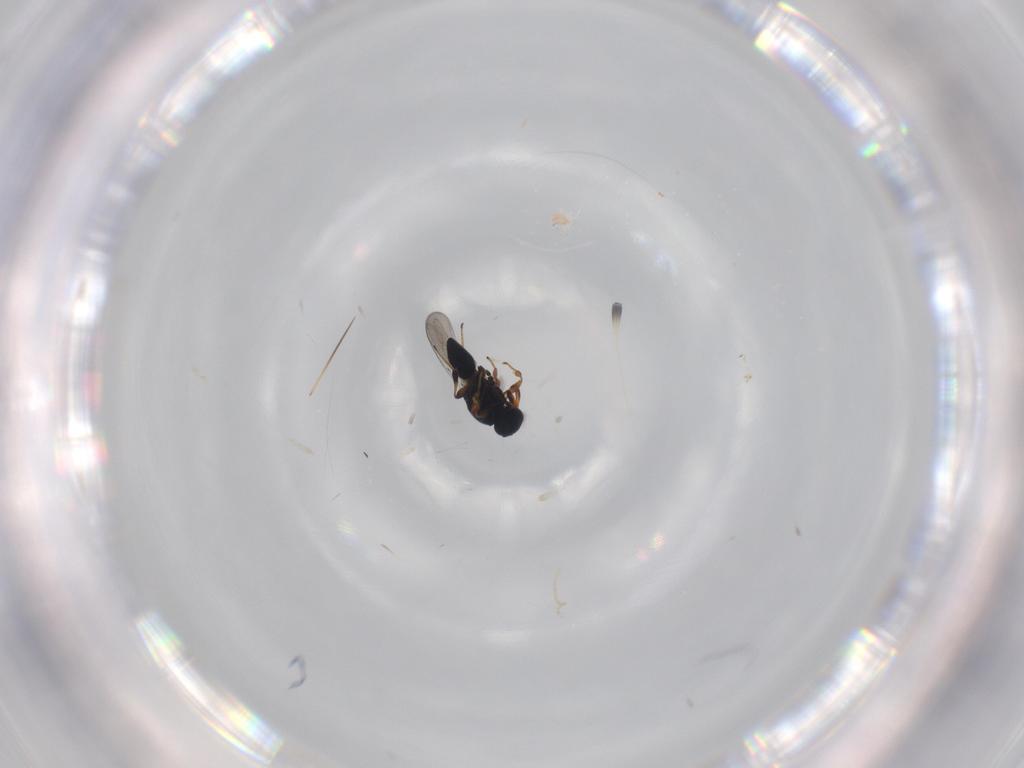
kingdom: Animalia
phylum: Arthropoda
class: Insecta
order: Hymenoptera
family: Platygastridae
